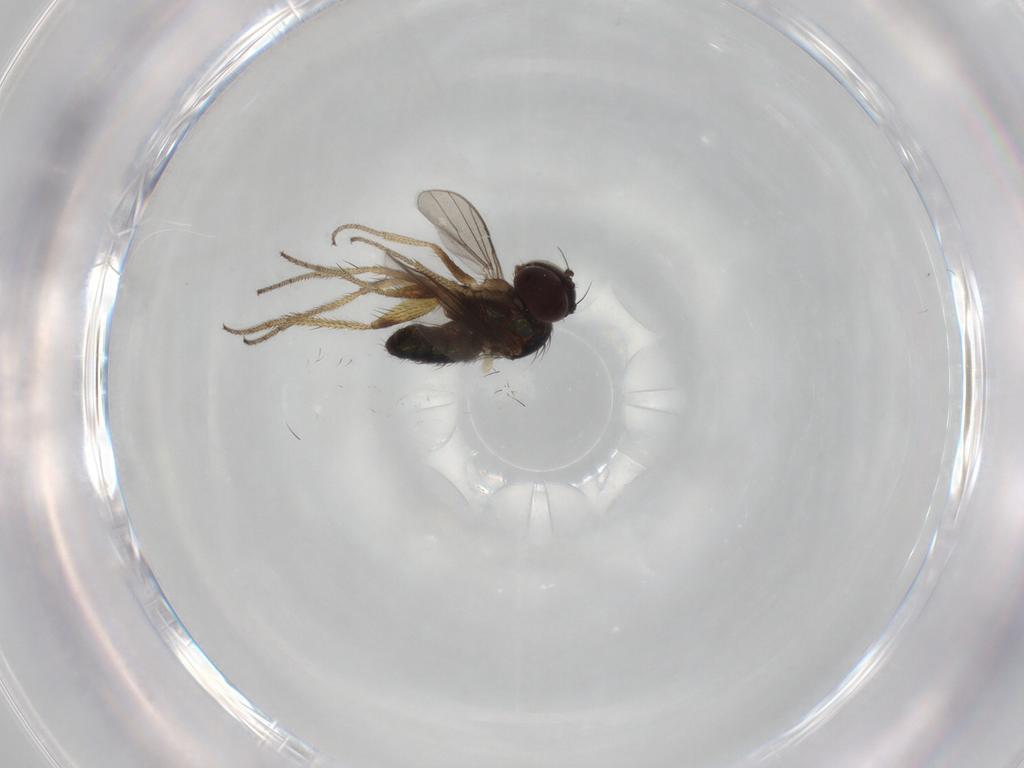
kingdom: Animalia
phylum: Arthropoda
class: Insecta
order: Diptera
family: Dolichopodidae
